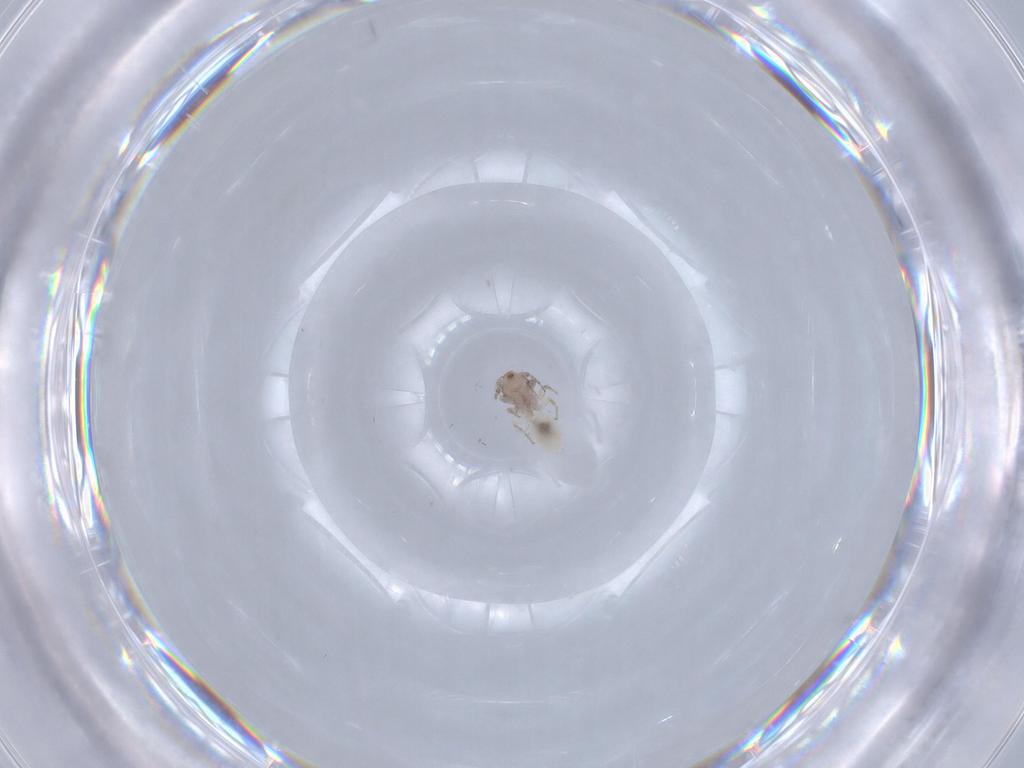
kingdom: Animalia
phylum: Arthropoda
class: Insecta
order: Psocodea
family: Lepidopsocidae
